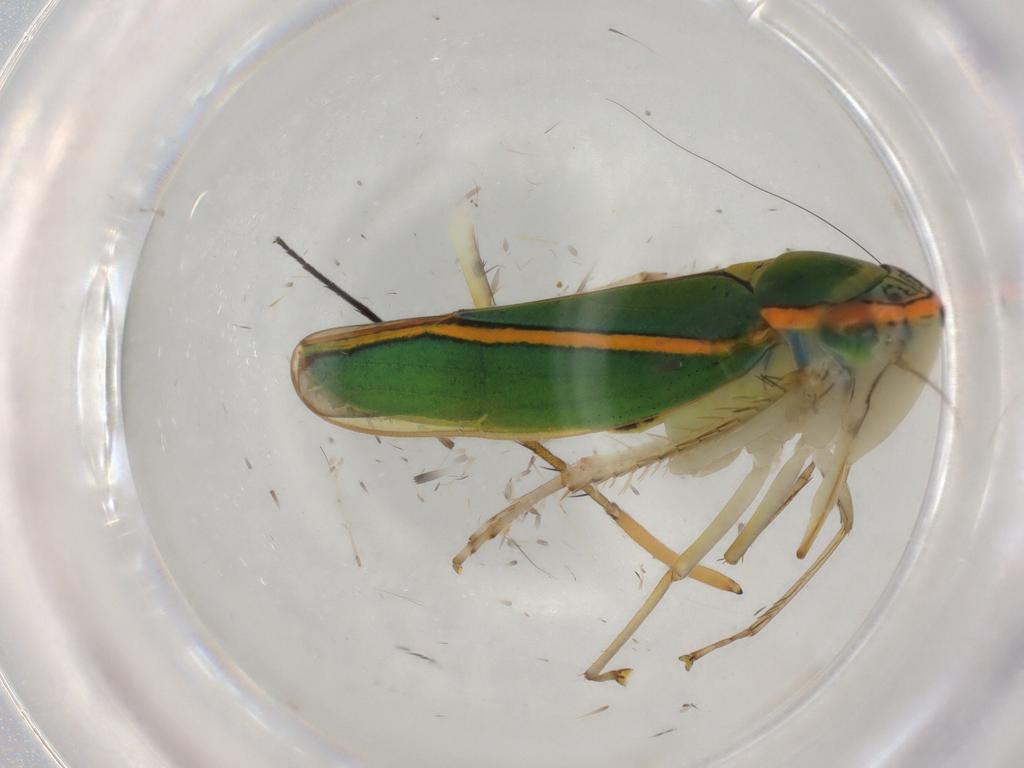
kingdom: Animalia
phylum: Arthropoda
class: Insecta
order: Hemiptera
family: Cicadellidae
